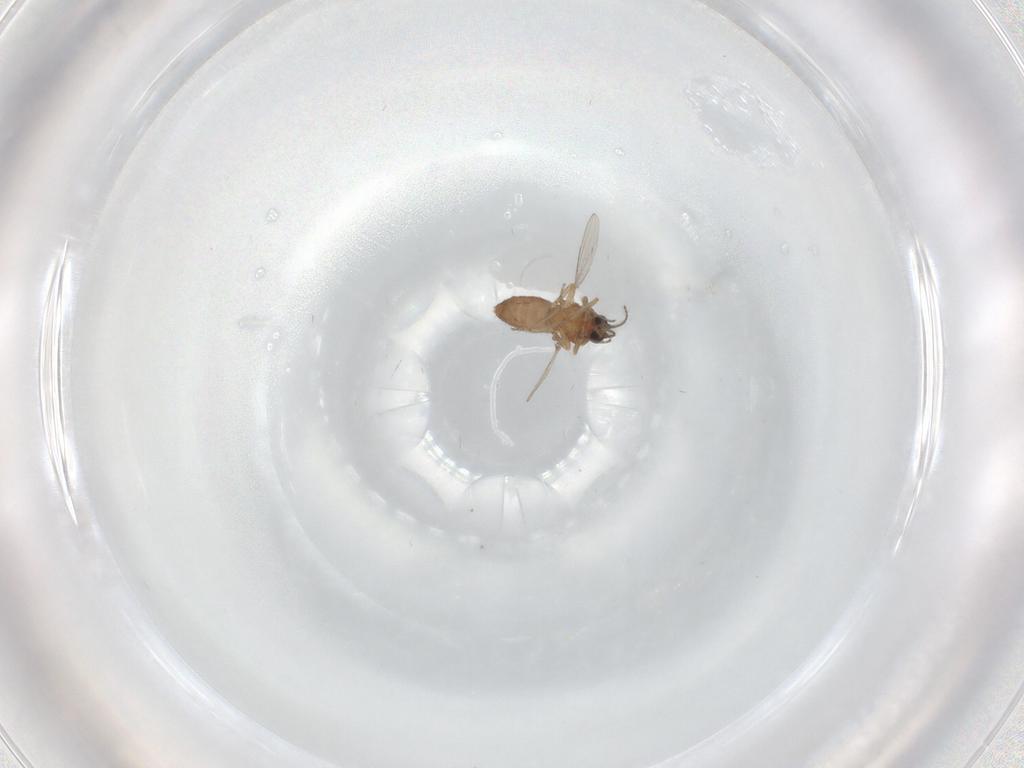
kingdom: Animalia
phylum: Arthropoda
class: Insecta
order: Diptera
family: Ceratopogonidae
